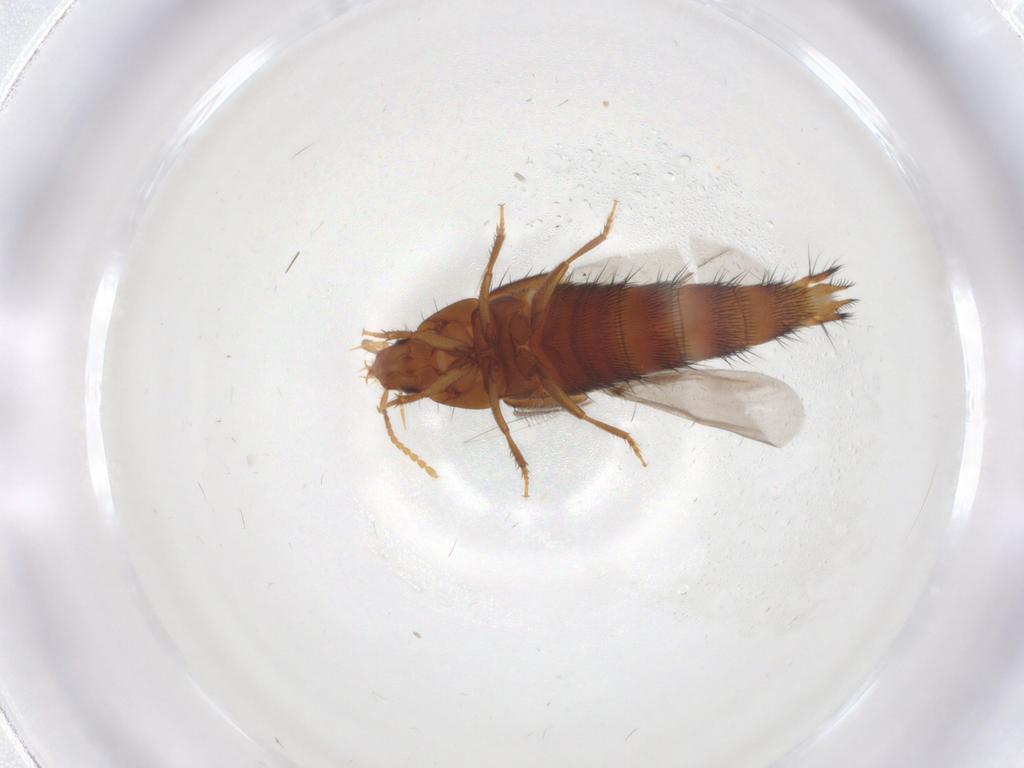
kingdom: Animalia
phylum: Arthropoda
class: Insecta
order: Coleoptera
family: Staphylinidae
